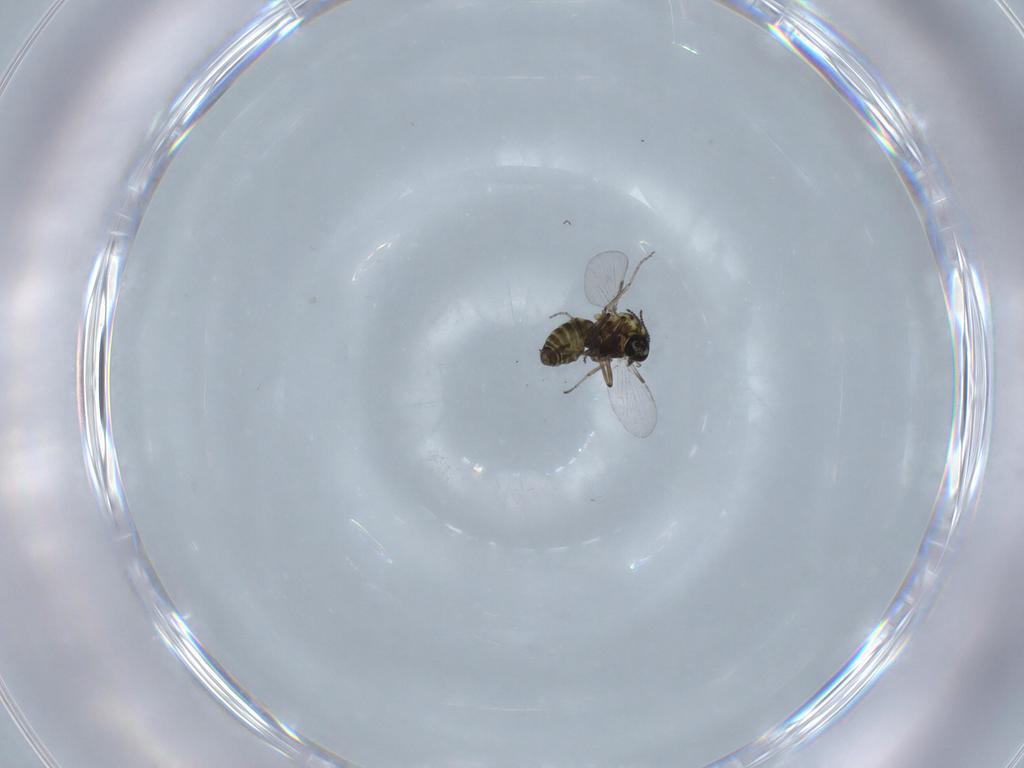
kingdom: Animalia
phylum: Arthropoda
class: Insecta
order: Diptera
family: Ceratopogonidae
